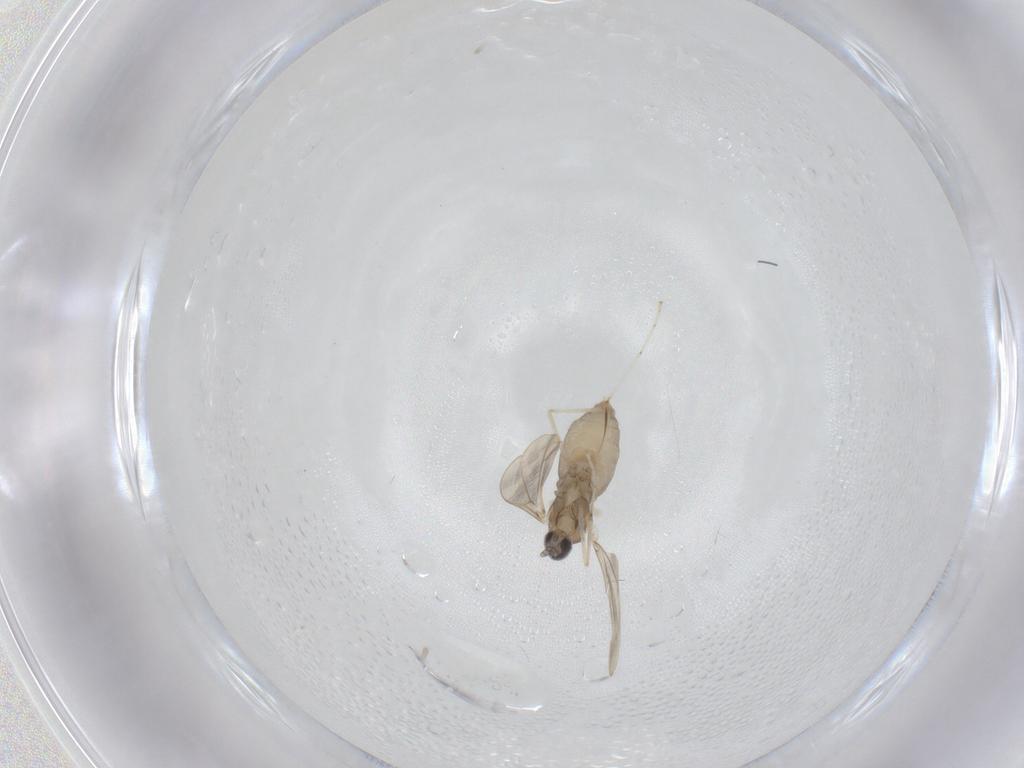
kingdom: Animalia
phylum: Arthropoda
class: Insecta
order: Diptera
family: Cecidomyiidae
